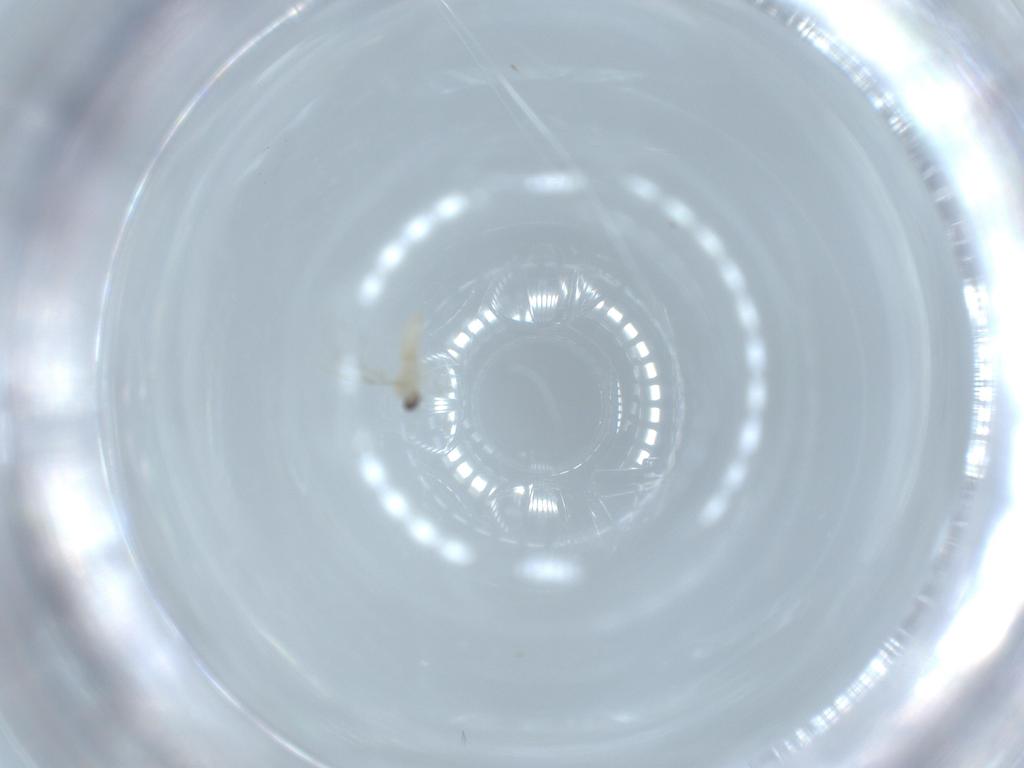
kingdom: Animalia
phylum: Arthropoda
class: Insecta
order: Diptera
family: Cecidomyiidae
